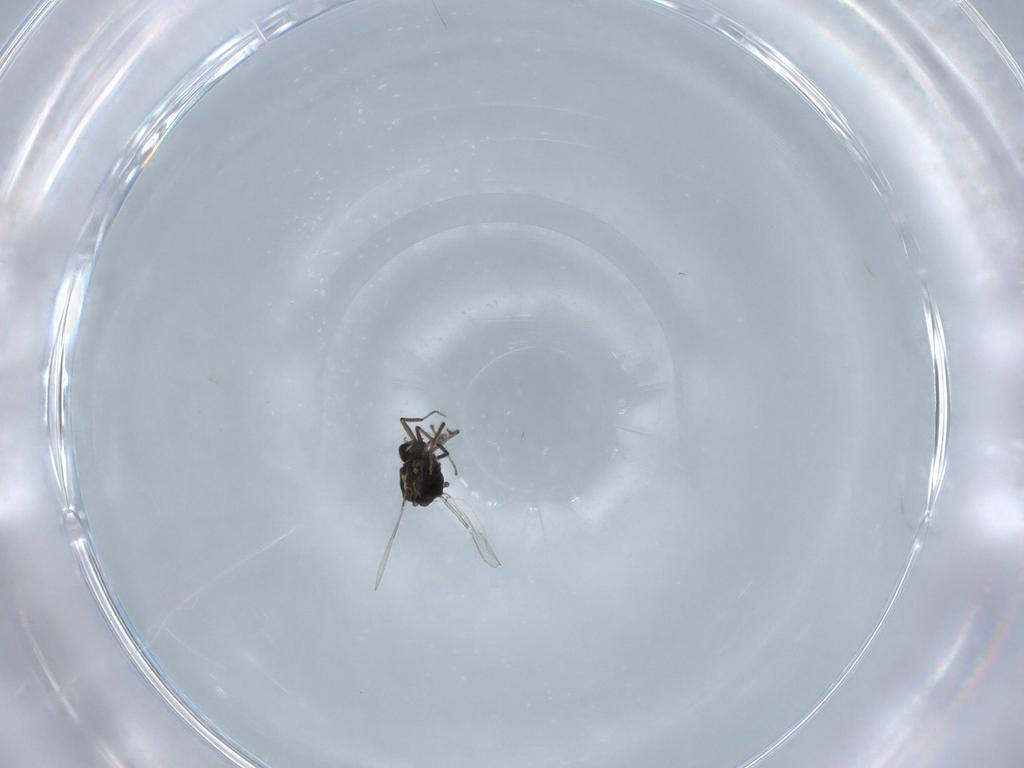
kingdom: Animalia
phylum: Arthropoda
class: Insecta
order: Diptera
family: Ceratopogonidae
